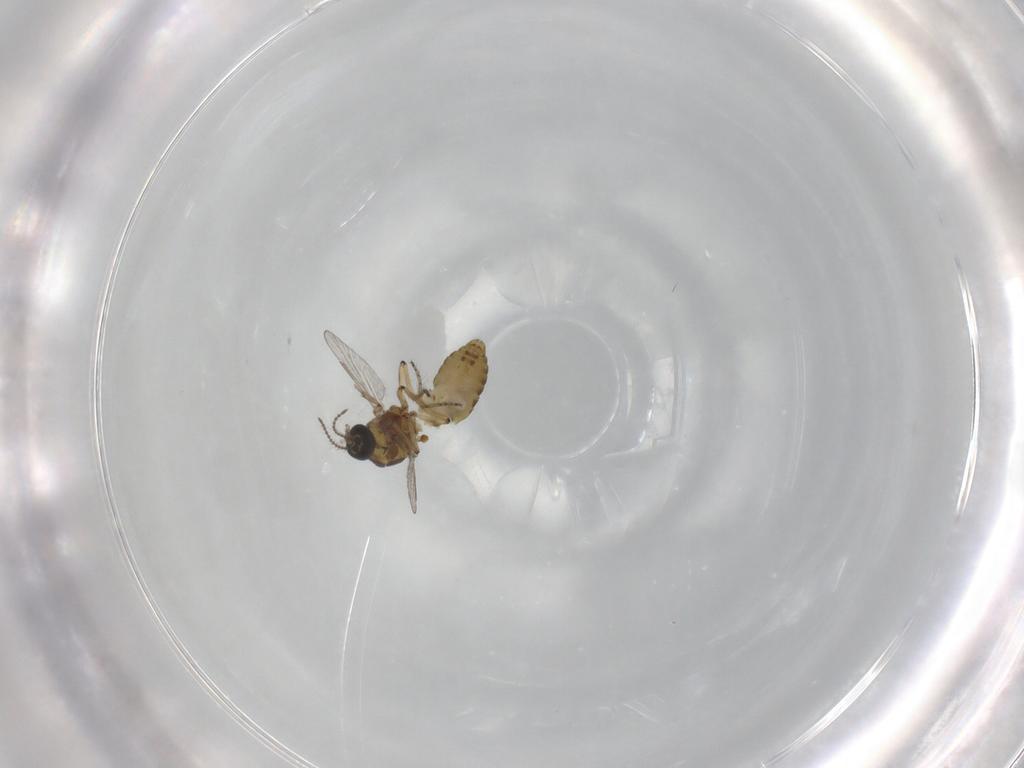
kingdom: Animalia
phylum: Arthropoda
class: Insecta
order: Diptera
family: Ceratopogonidae
